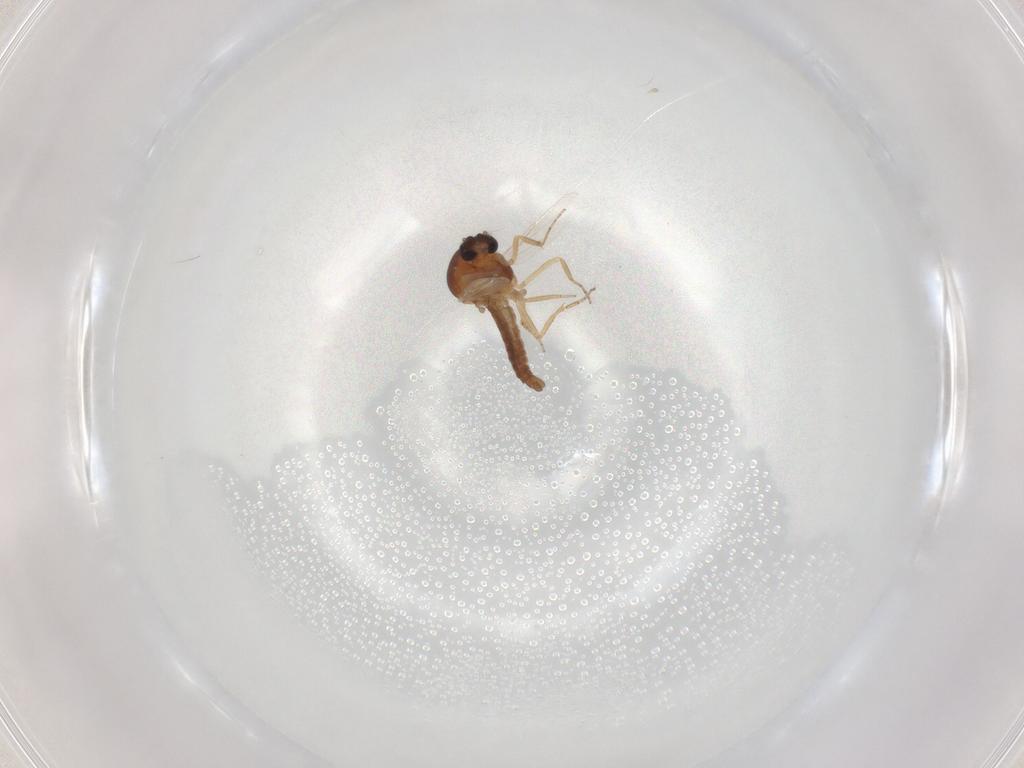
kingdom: Animalia
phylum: Arthropoda
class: Insecta
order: Diptera
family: Ceratopogonidae
